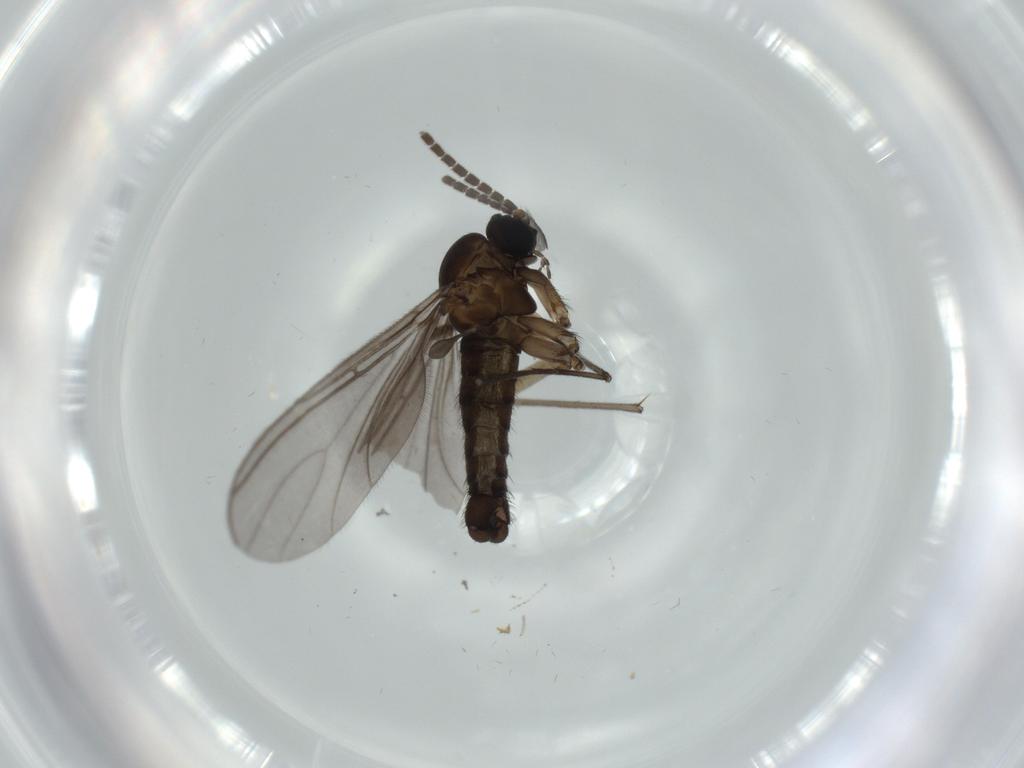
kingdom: Animalia
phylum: Arthropoda
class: Insecta
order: Diptera
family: Sciaridae
